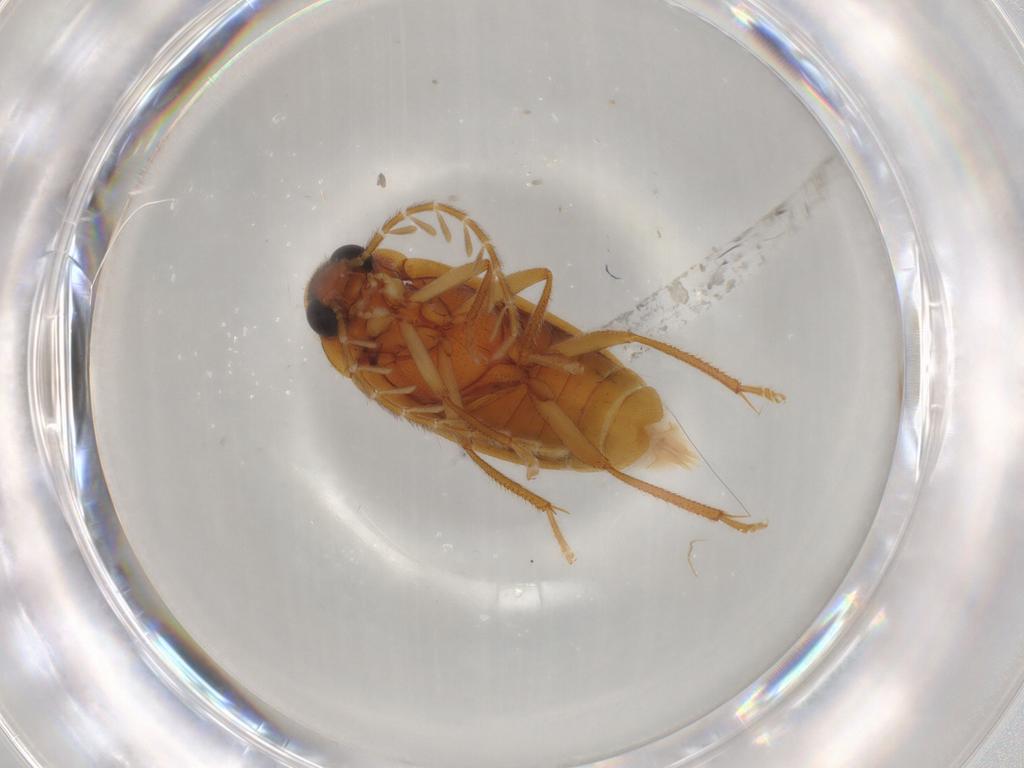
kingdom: Animalia
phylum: Arthropoda
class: Insecta
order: Coleoptera
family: Ptilodactylidae
